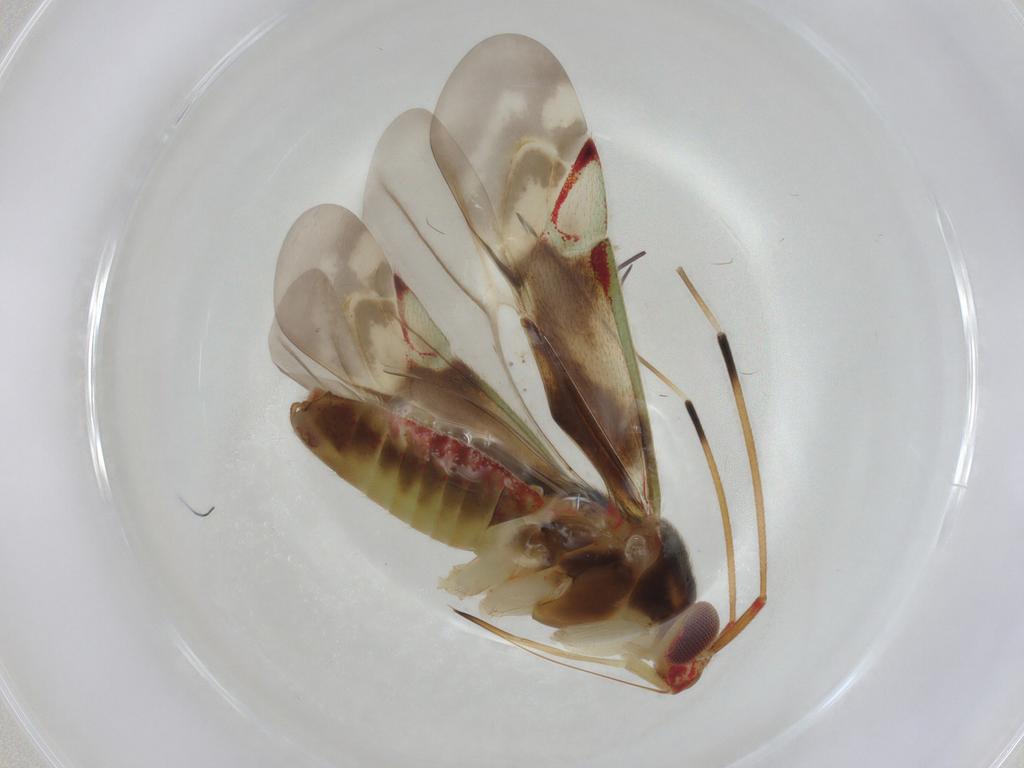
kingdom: Animalia
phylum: Arthropoda
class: Insecta
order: Hemiptera
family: Miridae
